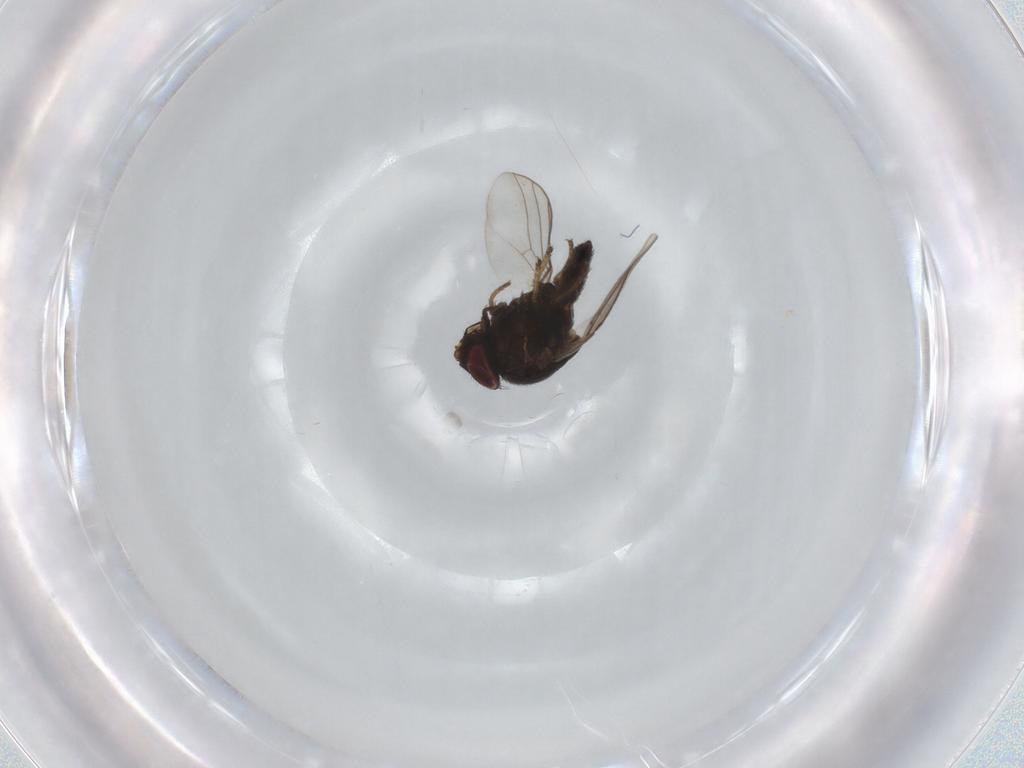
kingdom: Animalia
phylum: Arthropoda
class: Insecta
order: Diptera
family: Chloropidae
